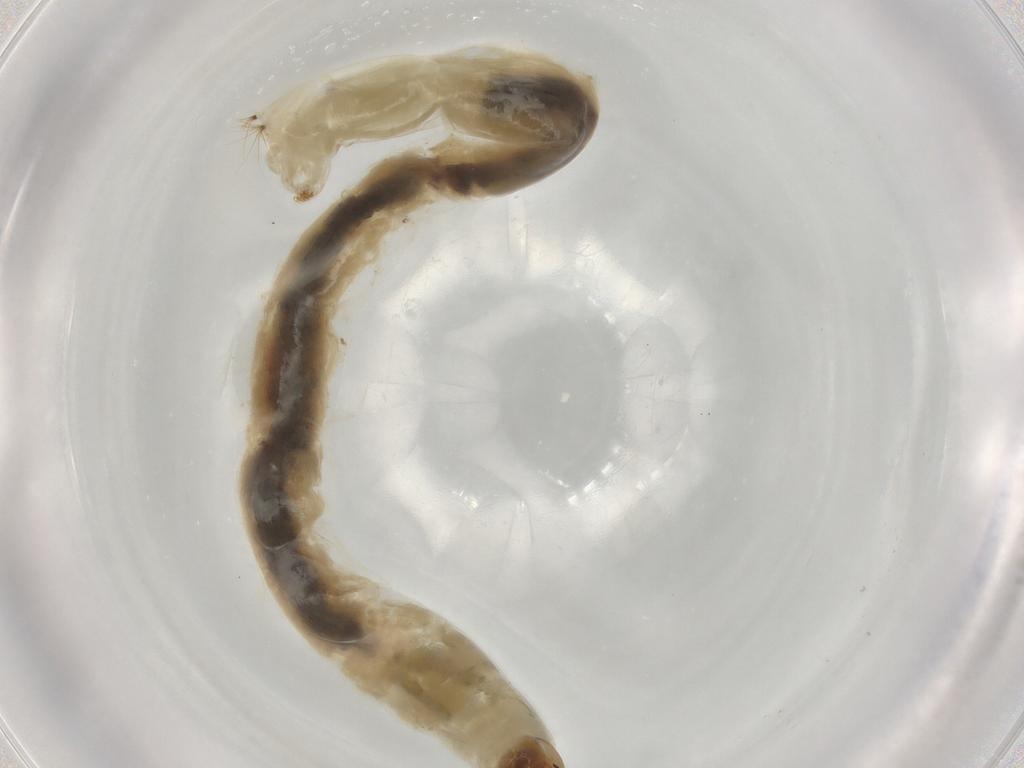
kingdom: Animalia
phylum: Arthropoda
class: Insecta
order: Diptera
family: Chironomidae
